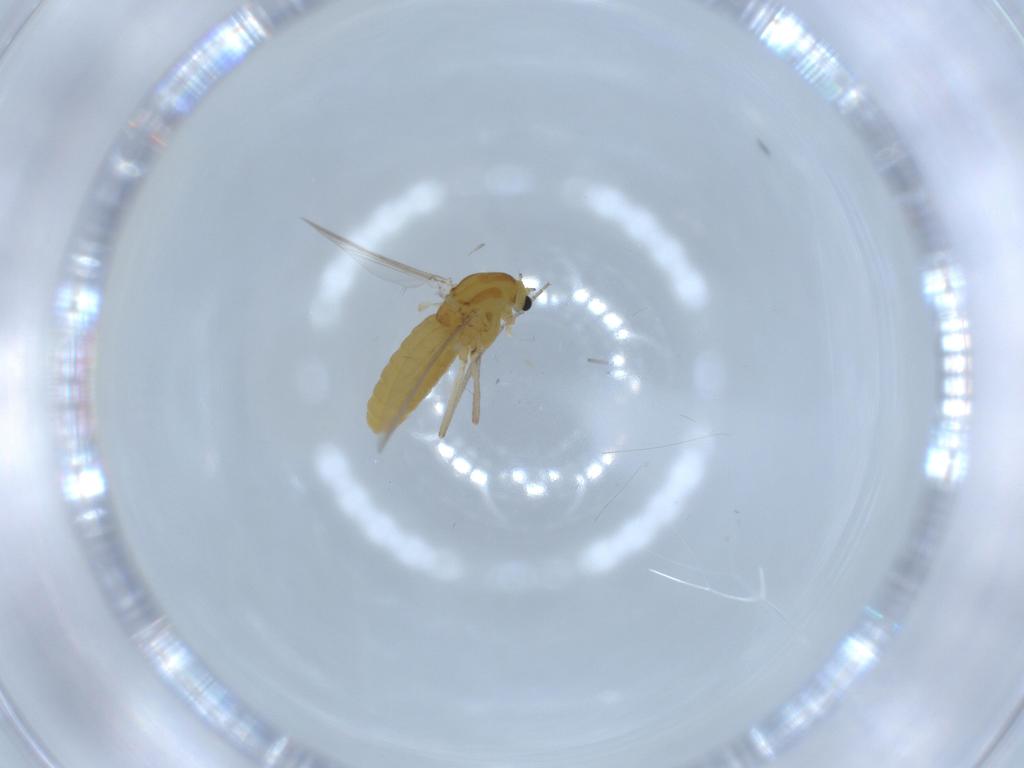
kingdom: Animalia
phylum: Arthropoda
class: Insecta
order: Diptera
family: Chironomidae
